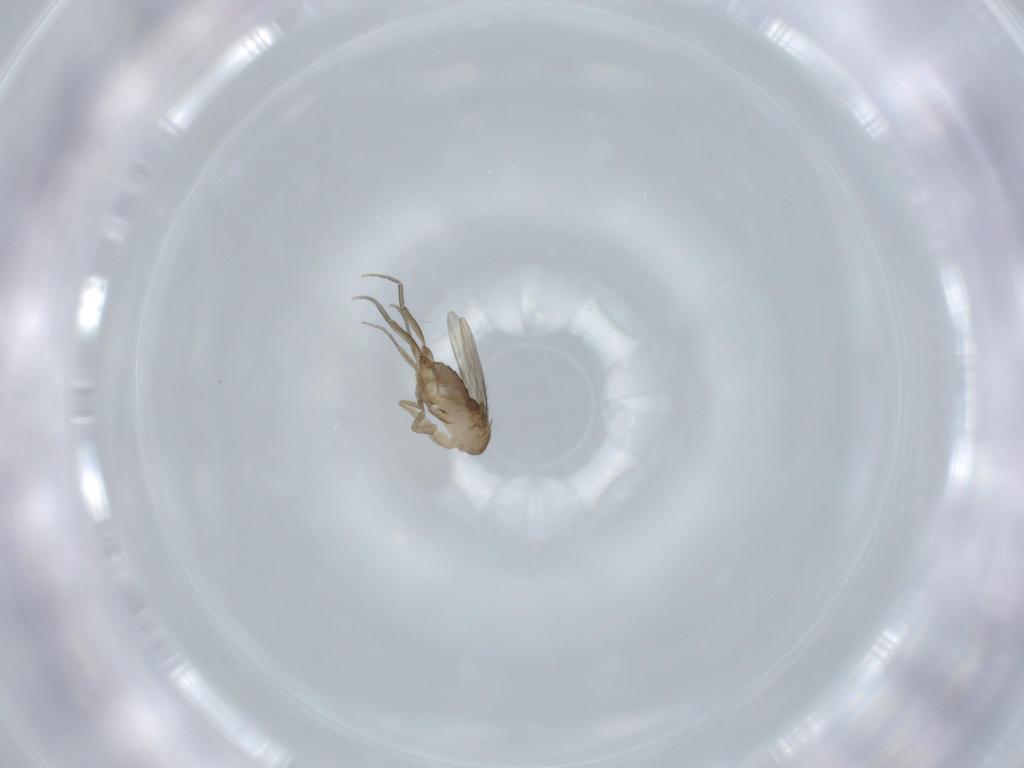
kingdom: Animalia
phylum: Arthropoda
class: Insecta
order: Diptera
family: Phoridae
